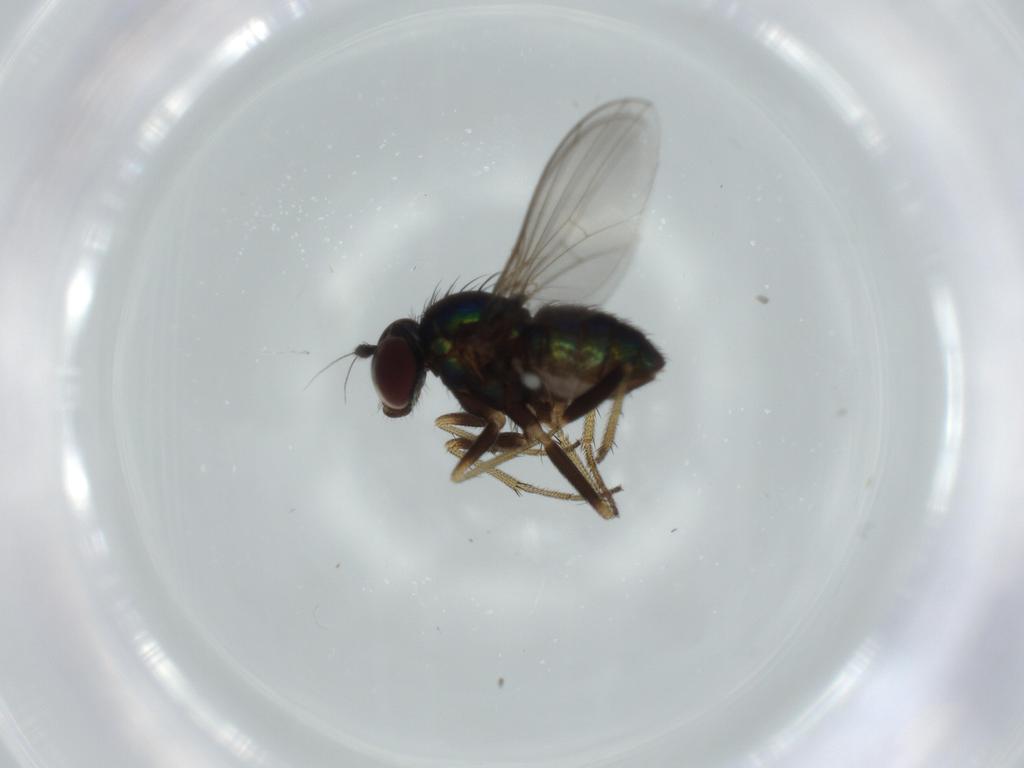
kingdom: Animalia
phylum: Arthropoda
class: Insecta
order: Diptera
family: Dolichopodidae
